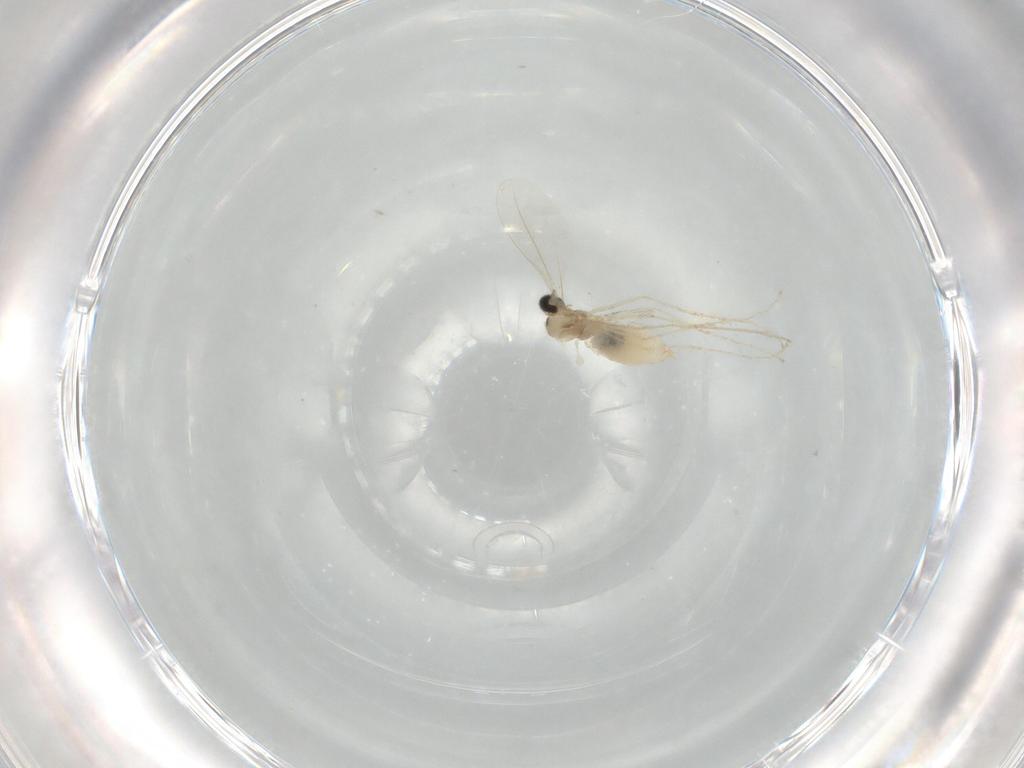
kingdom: Animalia
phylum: Arthropoda
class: Insecta
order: Diptera
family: Cecidomyiidae
